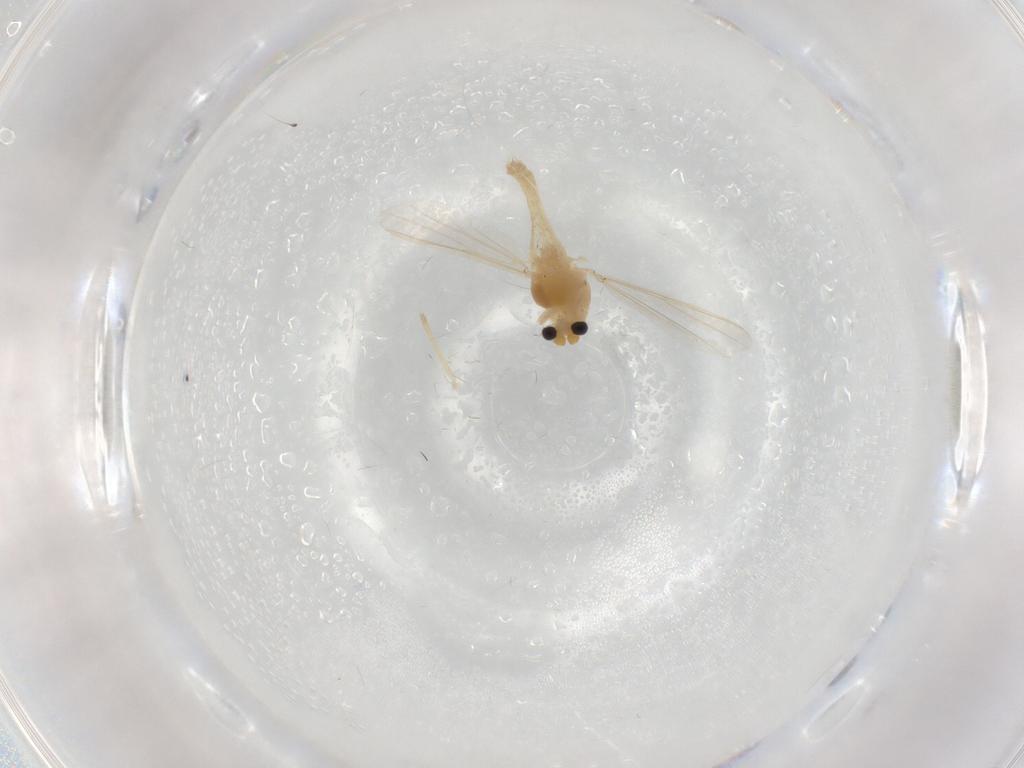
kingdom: Animalia
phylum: Arthropoda
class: Insecta
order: Diptera
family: Chironomidae
